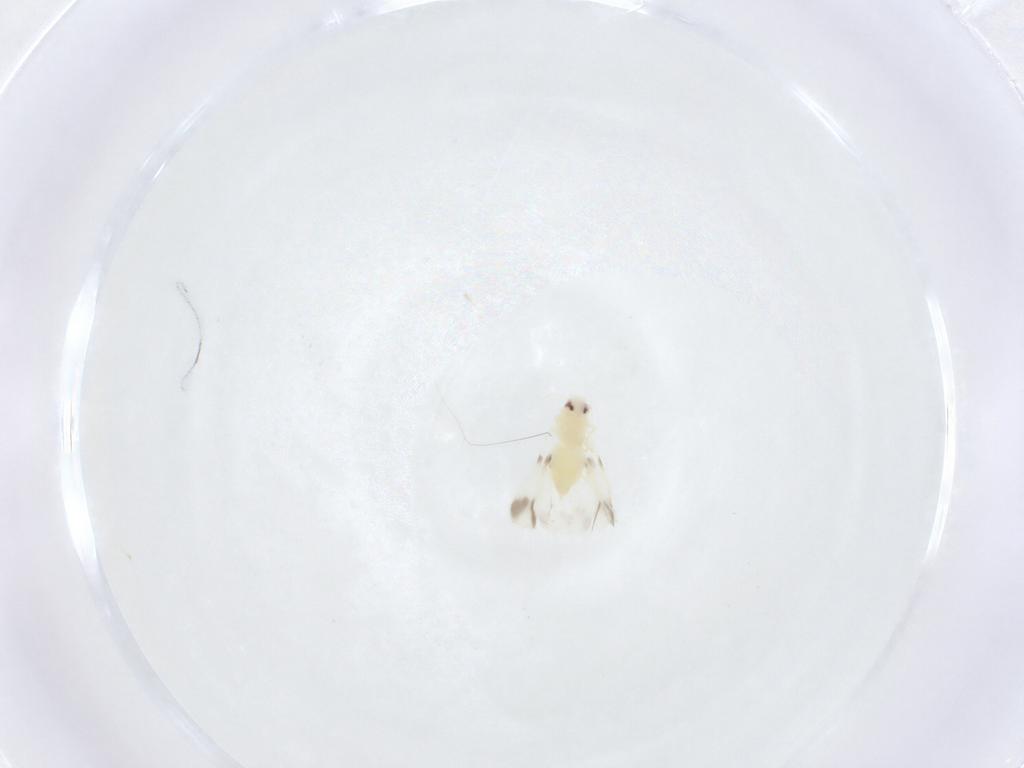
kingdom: Animalia
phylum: Arthropoda
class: Insecta
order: Hemiptera
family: Aleyrodidae
